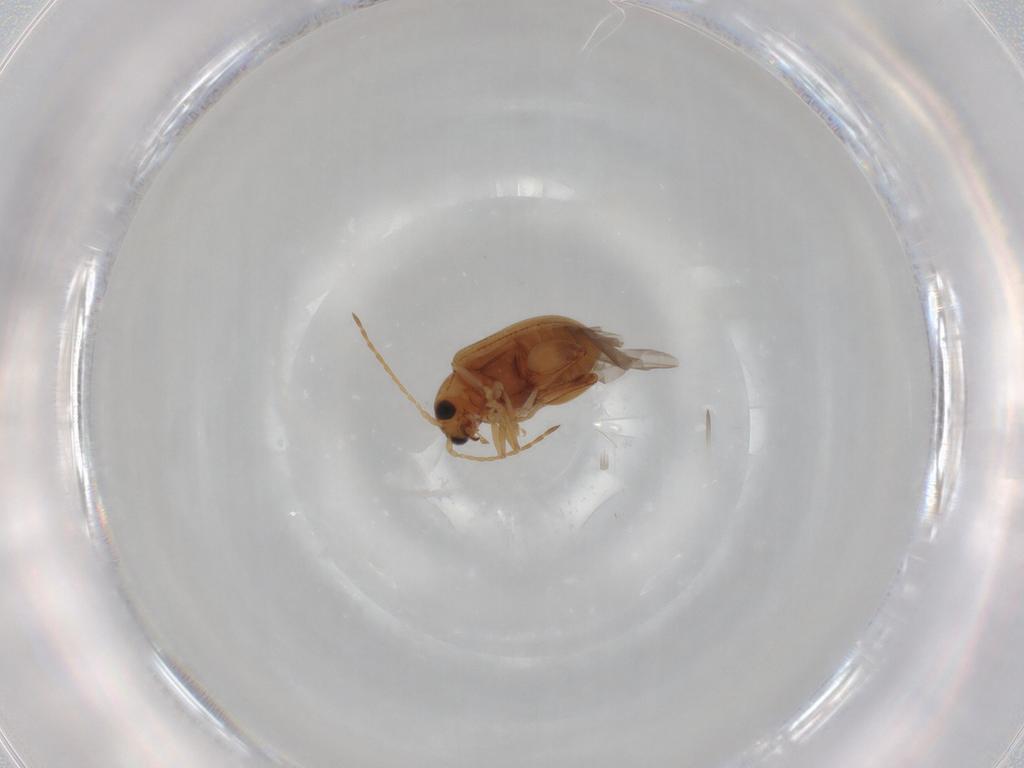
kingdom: Animalia
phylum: Arthropoda
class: Insecta
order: Coleoptera
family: Chrysomelidae
